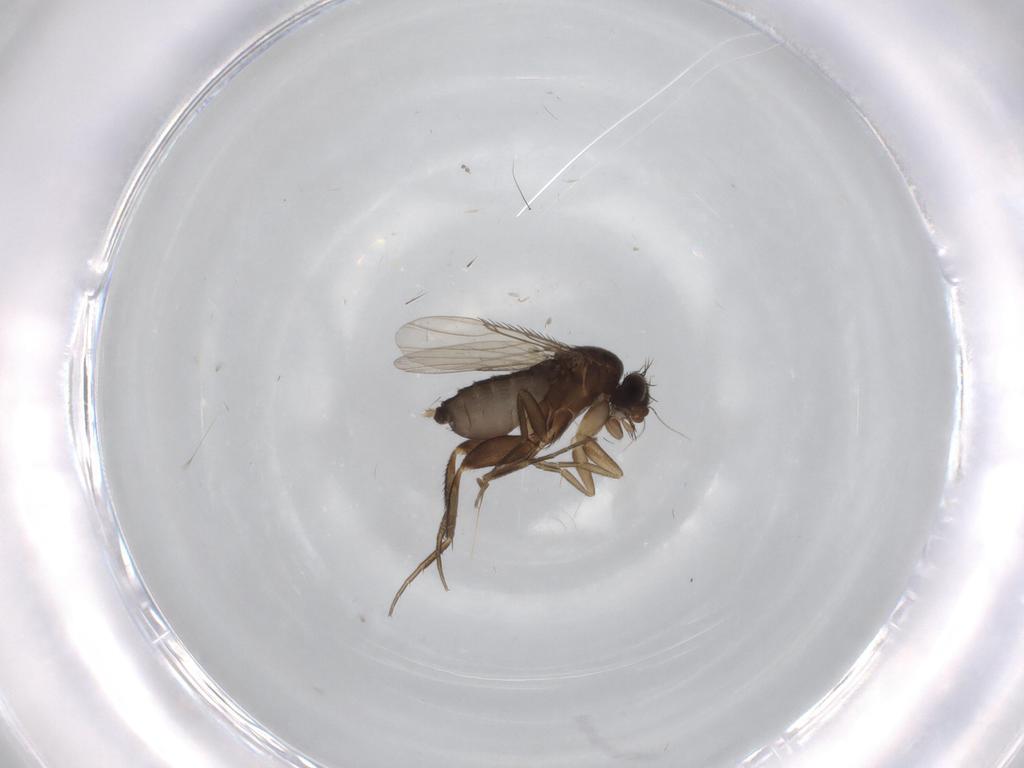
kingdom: Animalia
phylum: Arthropoda
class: Insecta
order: Diptera
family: Phoridae
